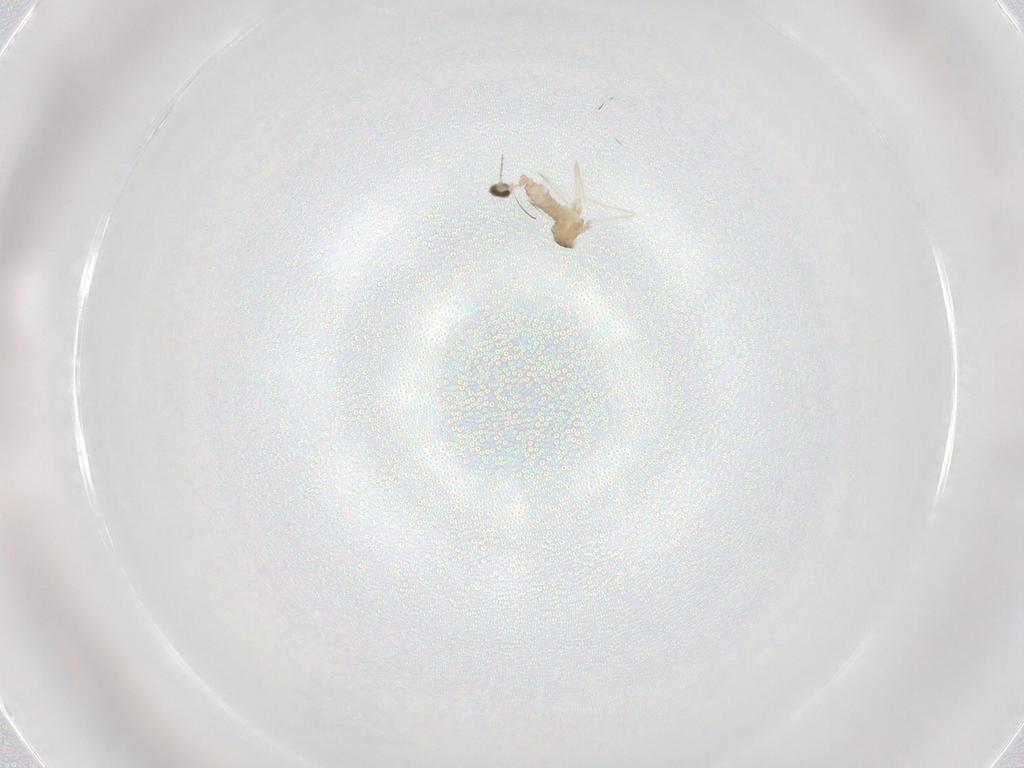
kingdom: Animalia
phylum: Arthropoda
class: Insecta
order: Diptera
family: Cecidomyiidae
